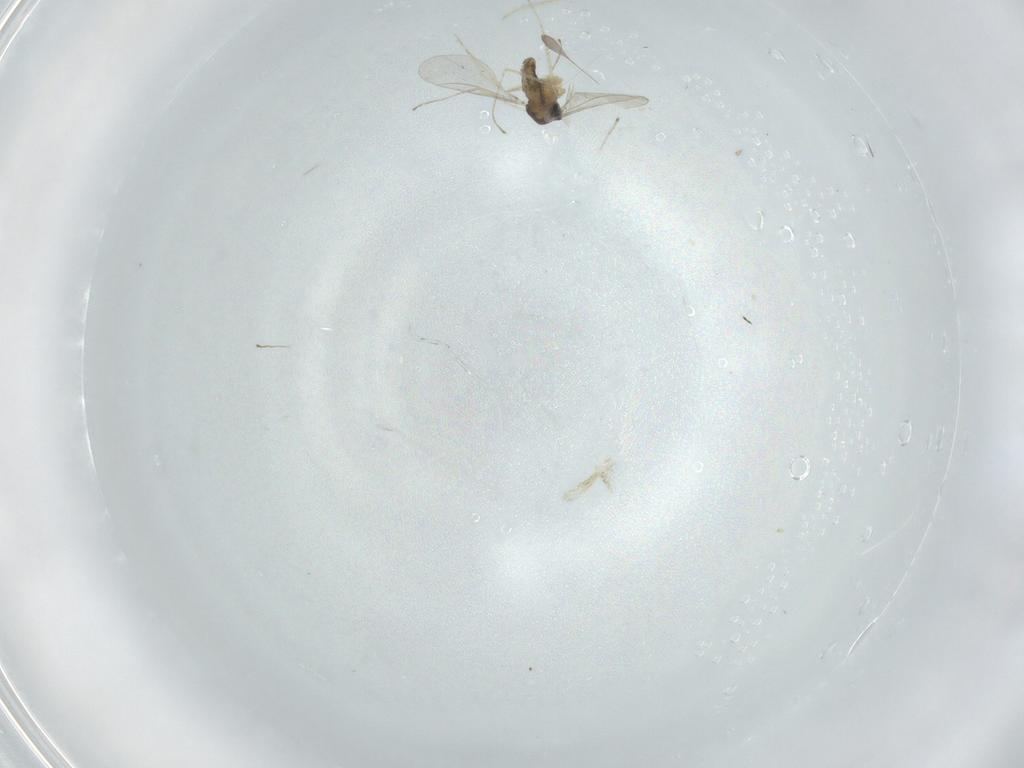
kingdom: Animalia
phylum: Arthropoda
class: Insecta
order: Diptera
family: Cecidomyiidae
